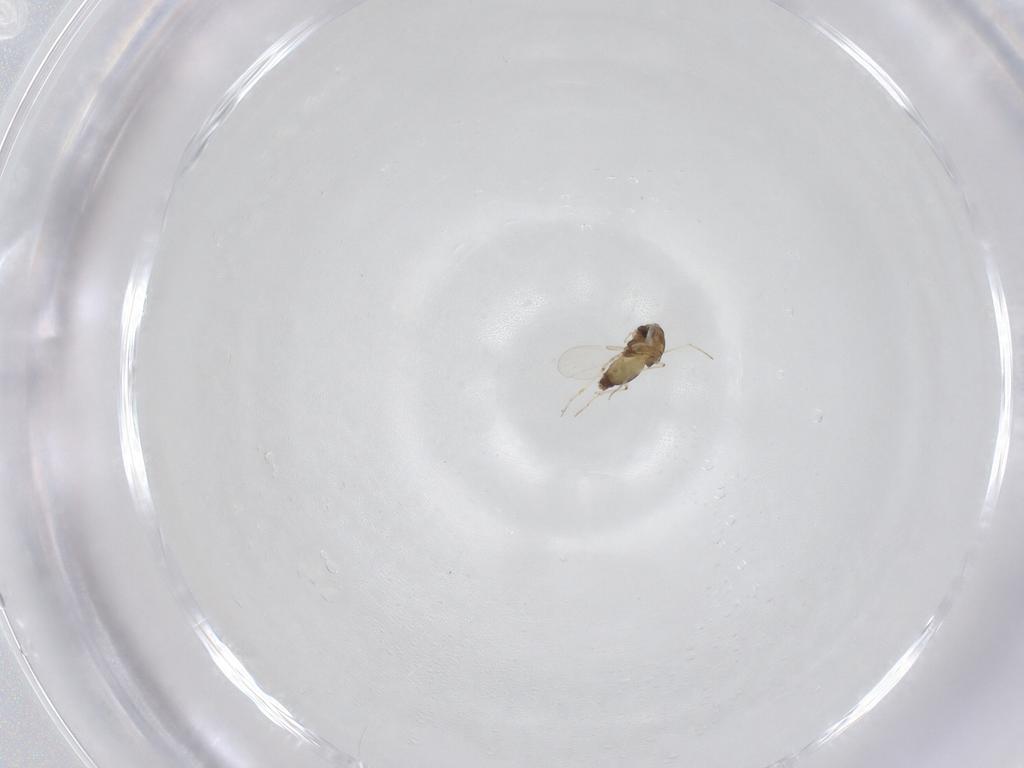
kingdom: Animalia
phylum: Arthropoda
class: Insecta
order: Diptera
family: Chironomidae
